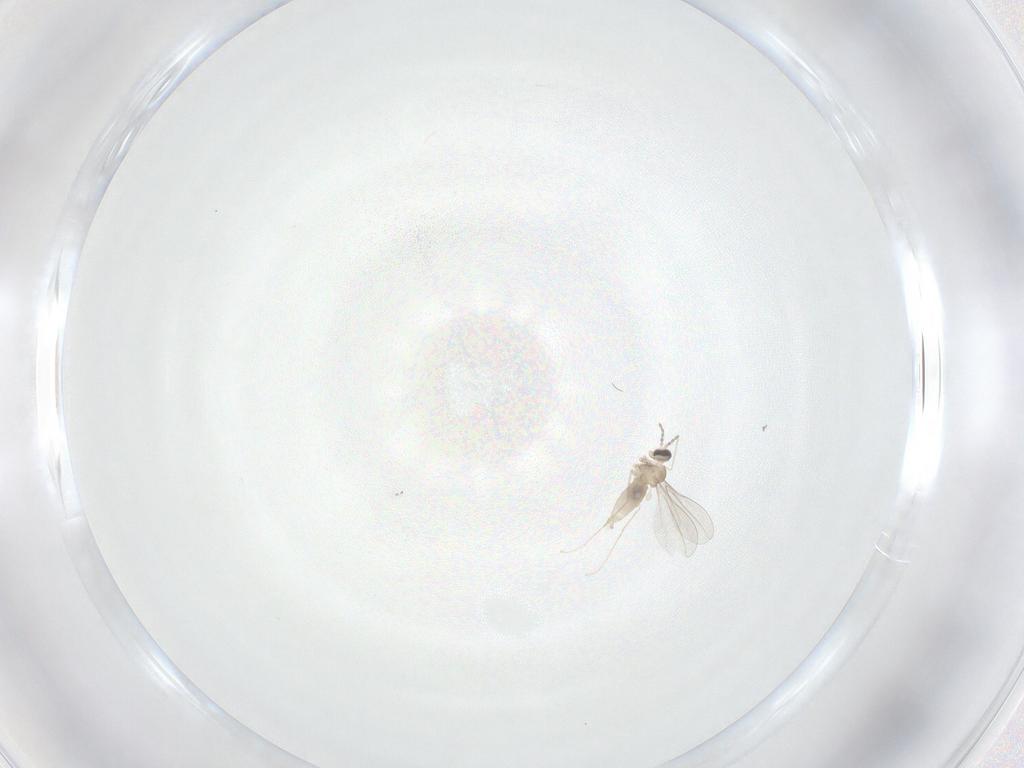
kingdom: Animalia
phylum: Arthropoda
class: Insecta
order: Diptera
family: Cecidomyiidae
